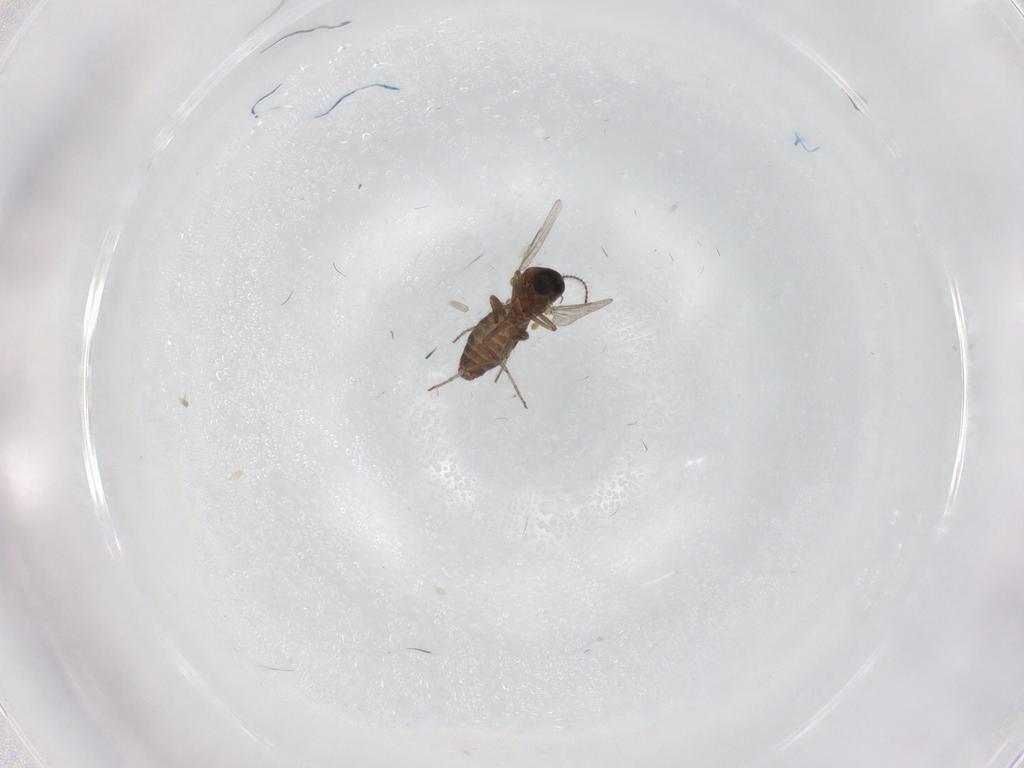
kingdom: Animalia
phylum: Arthropoda
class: Insecta
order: Diptera
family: Ceratopogonidae
